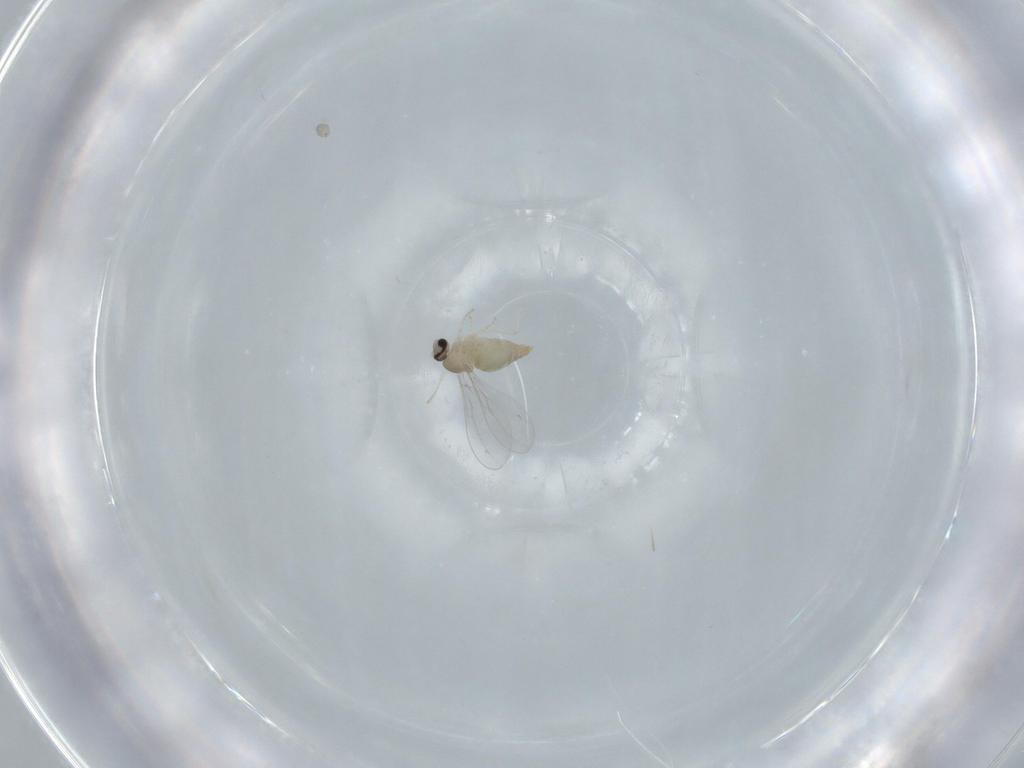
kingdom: Animalia
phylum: Arthropoda
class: Insecta
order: Diptera
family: Cecidomyiidae
